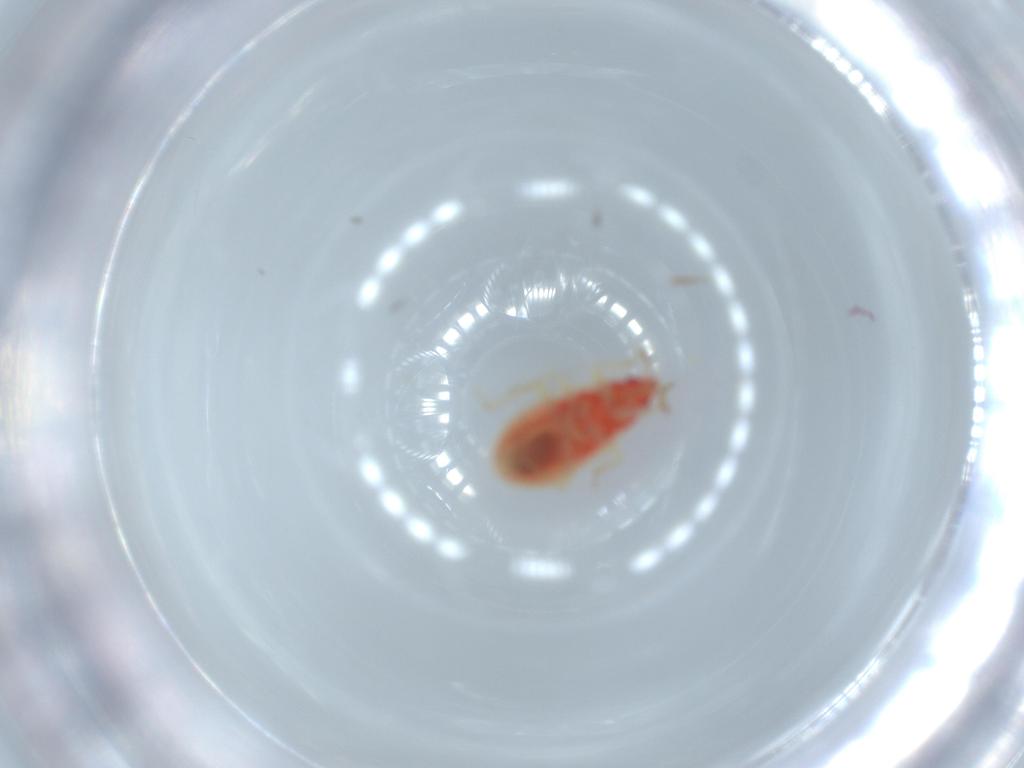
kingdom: Animalia
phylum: Arthropoda
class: Insecta
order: Hemiptera
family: Anthocoridae
